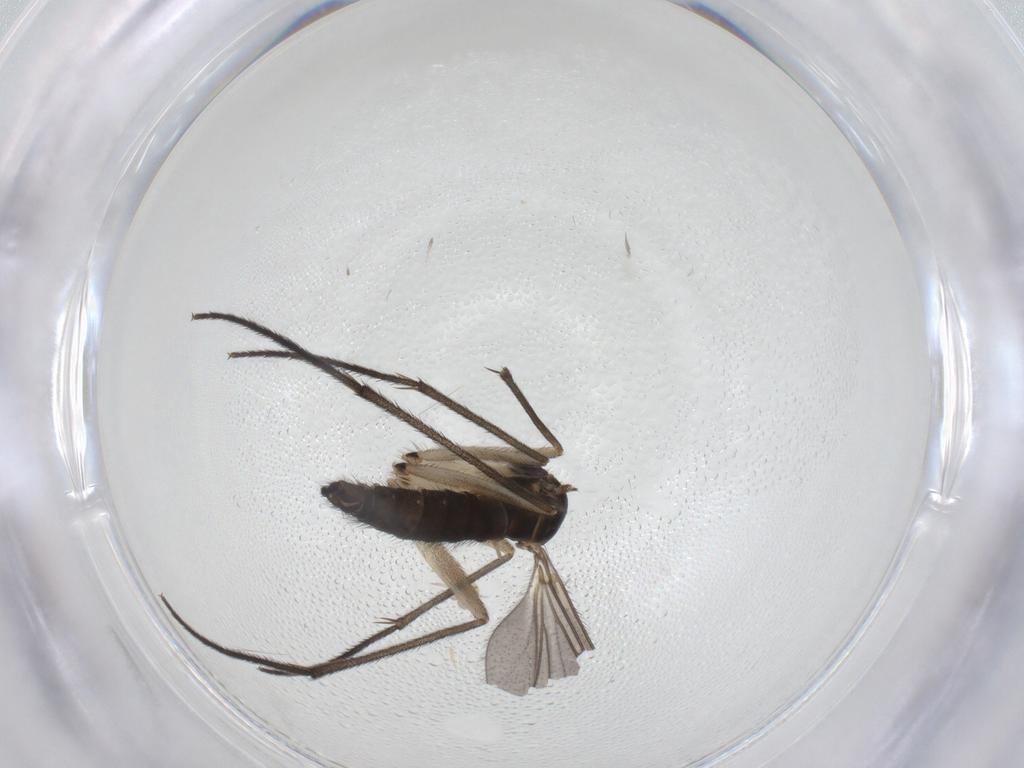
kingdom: Animalia
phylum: Arthropoda
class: Insecta
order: Diptera
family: Sciaridae
